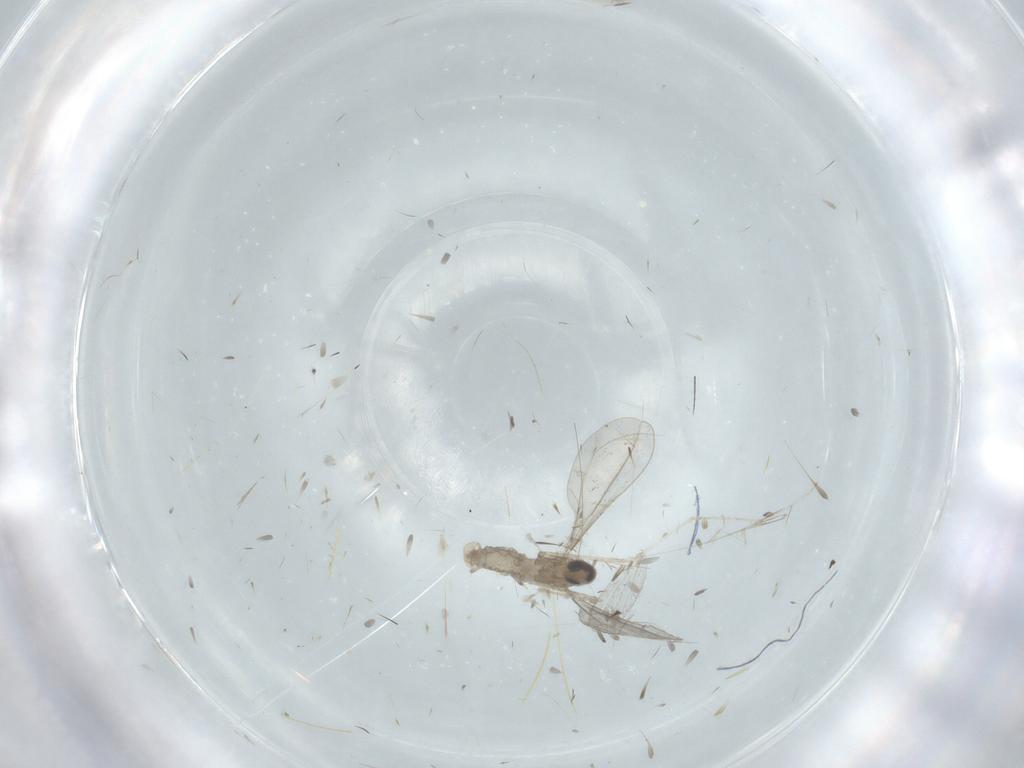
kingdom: Animalia
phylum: Arthropoda
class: Insecta
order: Diptera
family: Cecidomyiidae
